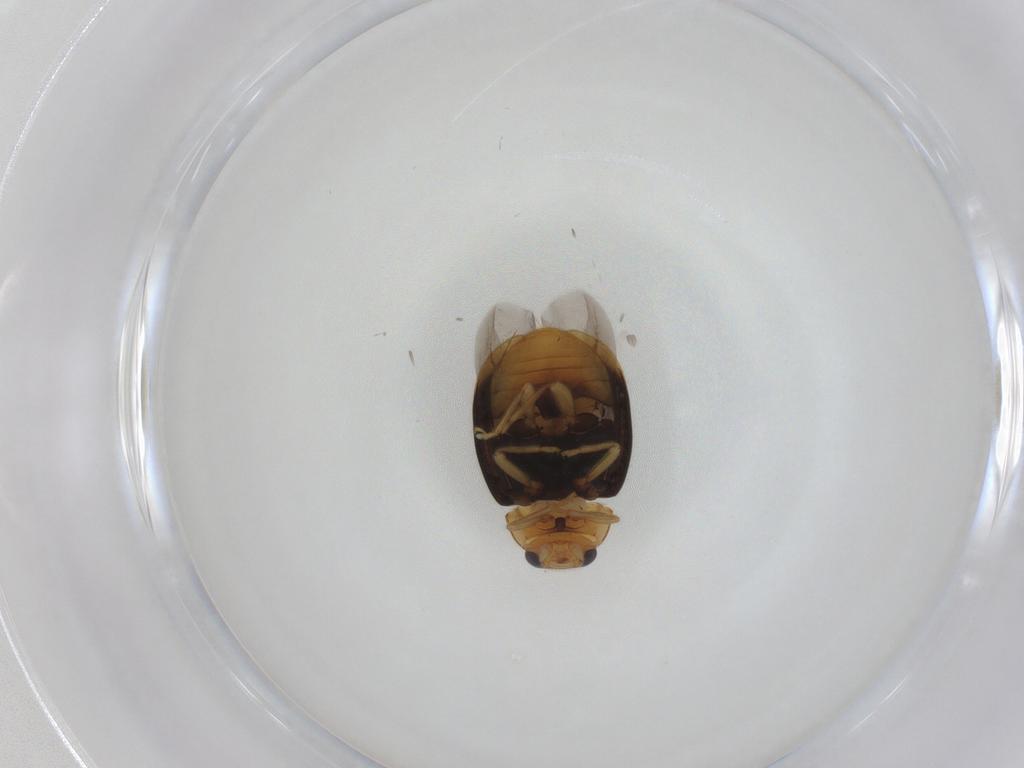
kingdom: Animalia
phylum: Arthropoda
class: Insecta
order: Coleoptera
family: Coccinellidae
